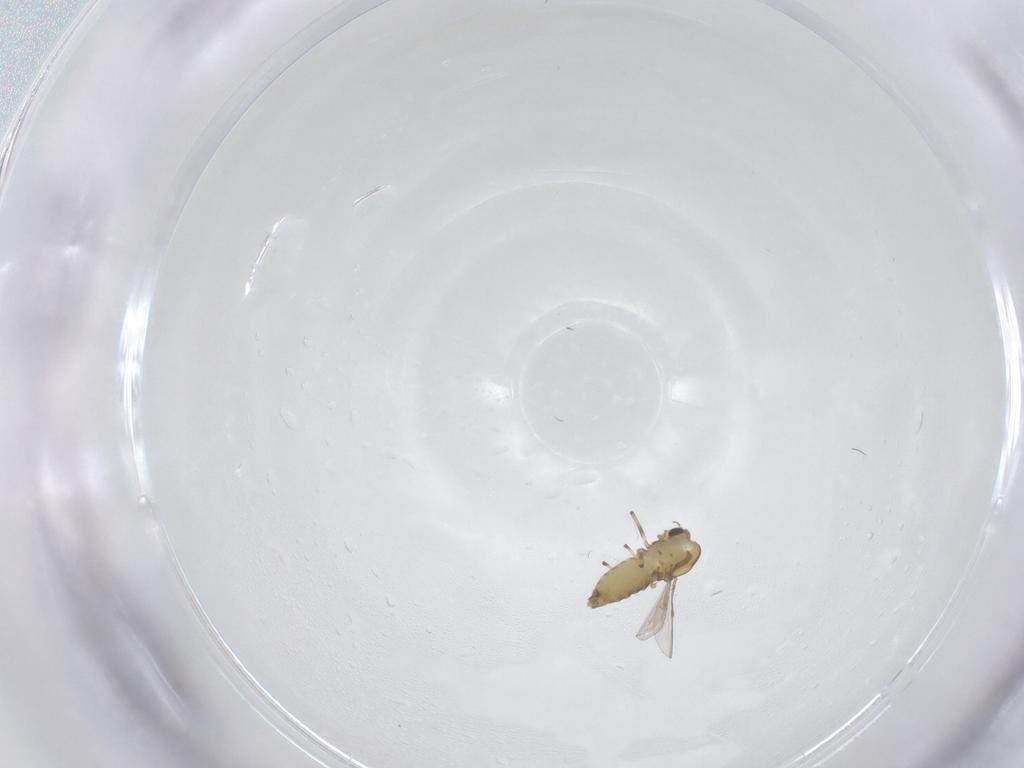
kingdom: Animalia
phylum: Arthropoda
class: Insecta
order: Diptera
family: Chironomidae
